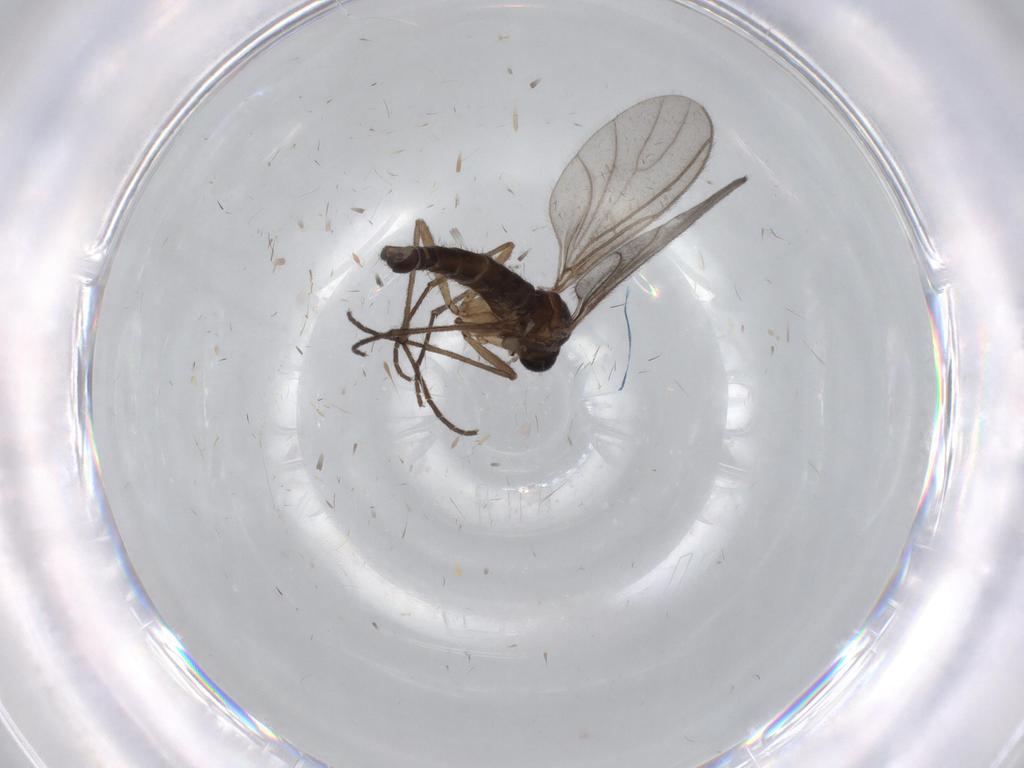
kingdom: Animalia
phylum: Arthropoda
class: Insecta
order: Diptera
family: Sciaridae
